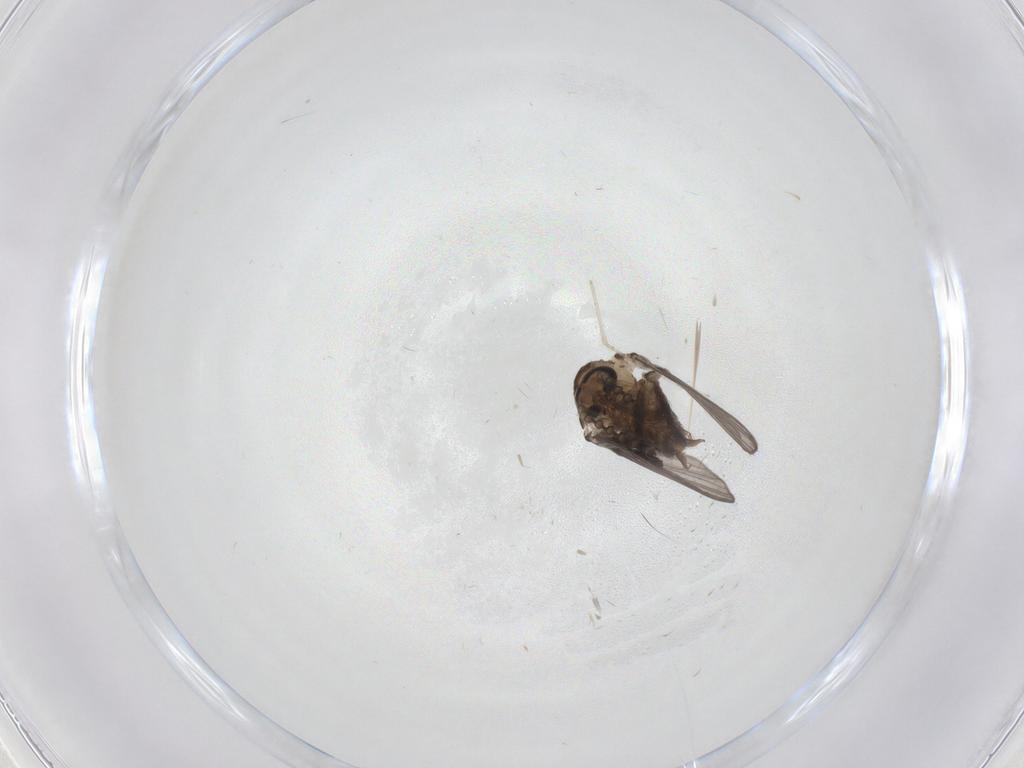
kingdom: Animalia
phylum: Arthropoda
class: Insecta
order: Diptera
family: Psychodidae
